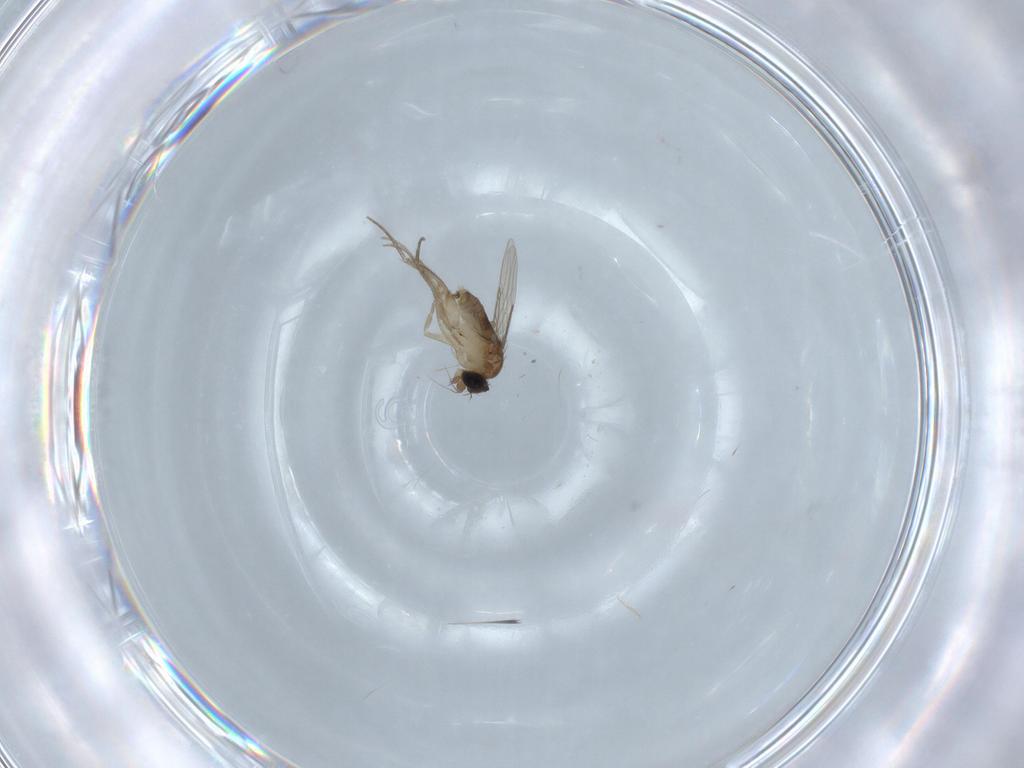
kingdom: Animalia
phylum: Arthropoda
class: Insecta
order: Diptera
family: Phoridae
